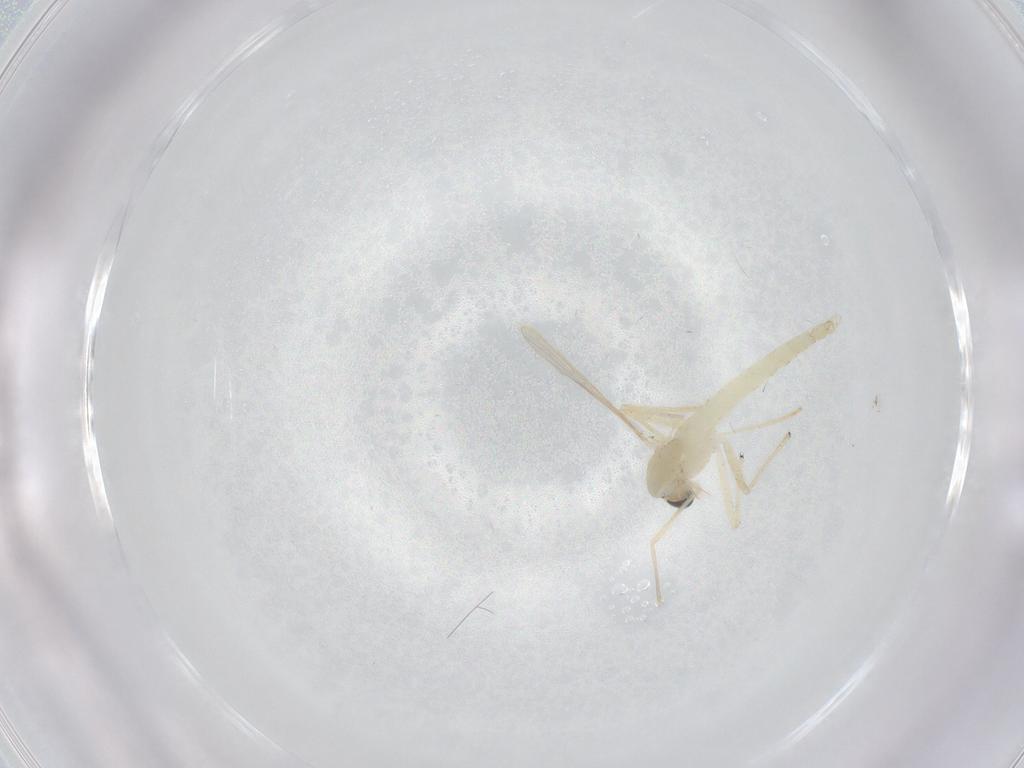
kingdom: Animalia
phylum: Arthropoda
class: Insecta
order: Diptera
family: Chironomidae
